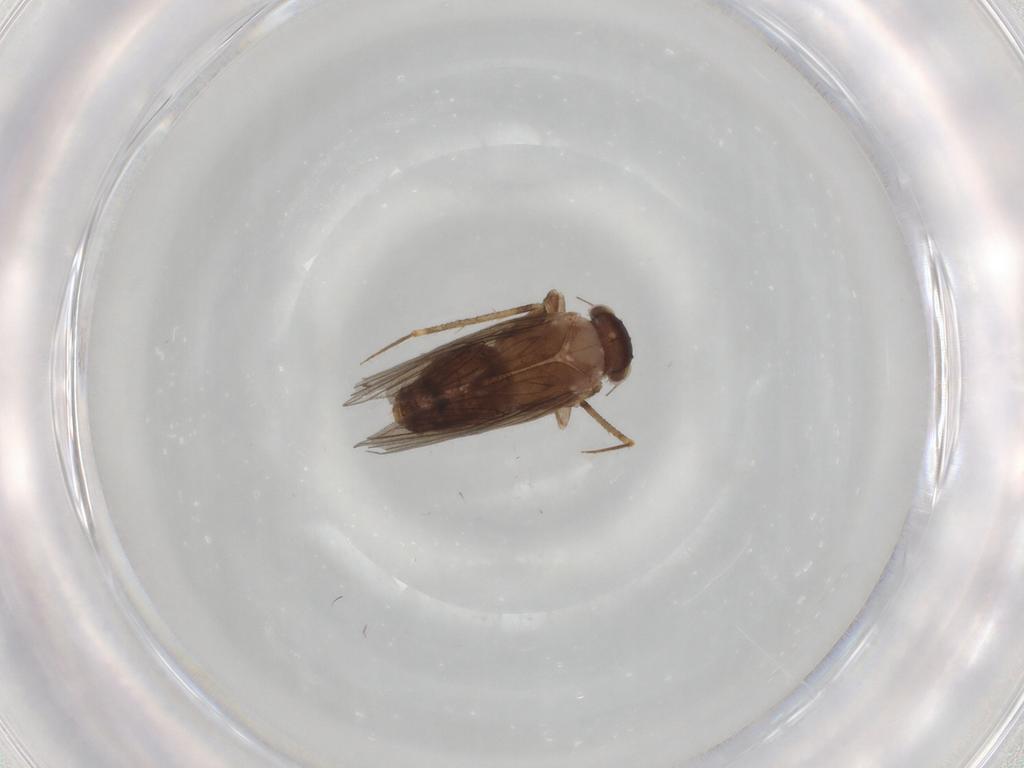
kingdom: Animalia
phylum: Arthropoda
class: Insecta
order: Psocodea
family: Lepidopsocidae
